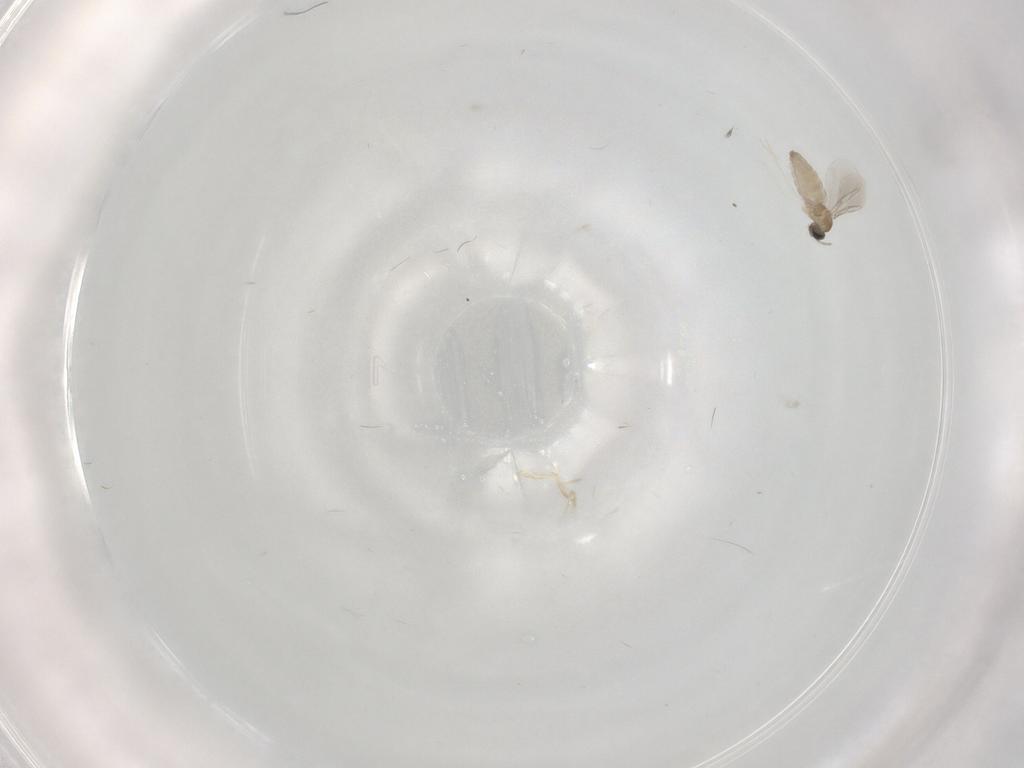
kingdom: Animalia
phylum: Arthropoda
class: Insecta
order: Diptera
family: Cecidomyiidae
